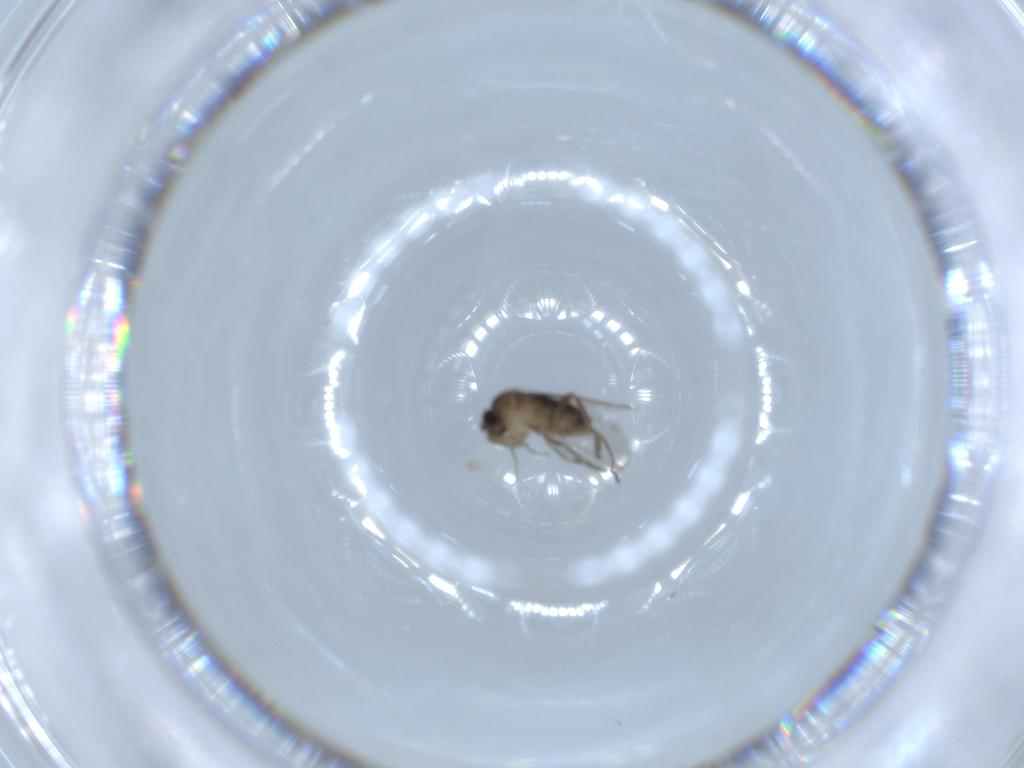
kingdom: Animalia
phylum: Arthropoda
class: Insecta
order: Diptera
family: Phoridae
